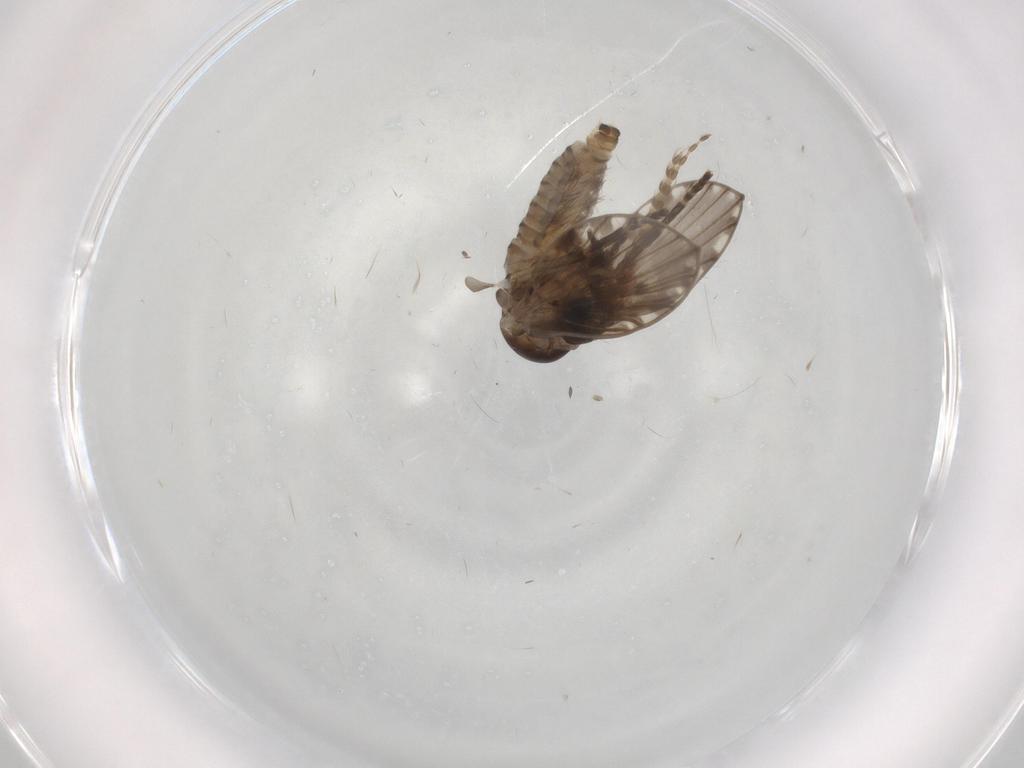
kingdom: Animalia
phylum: Arthropoda
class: Insecta
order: Diptera
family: Psychodidae
